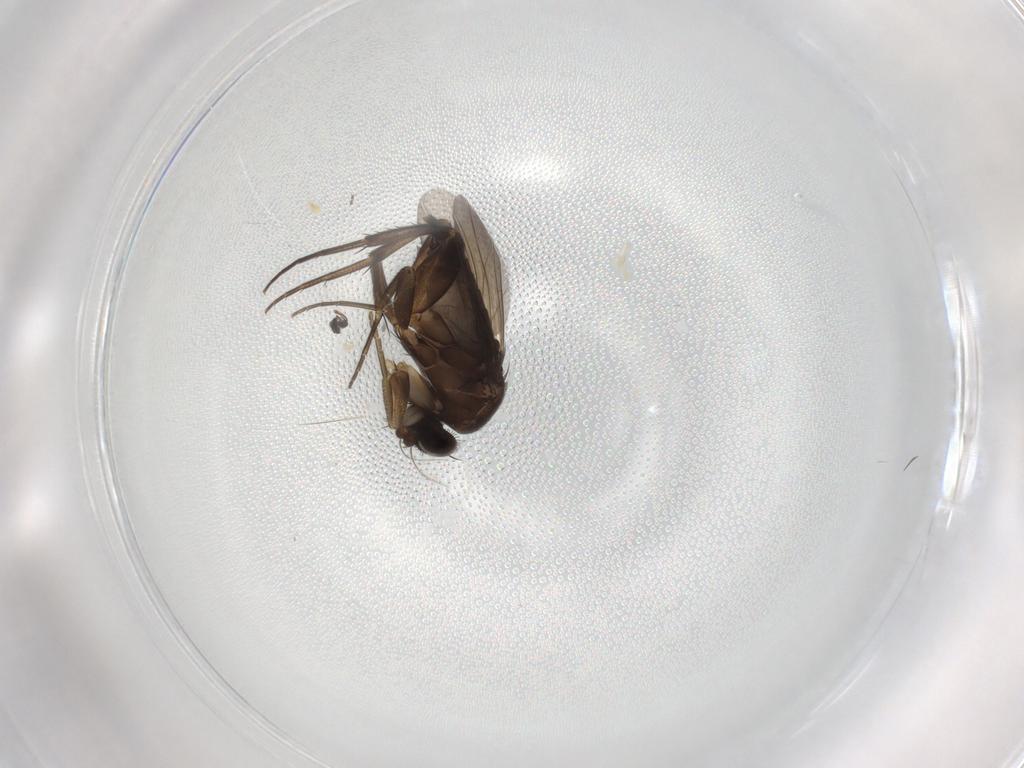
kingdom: Animalia
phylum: Arthropoda
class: Insecta
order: Diptera
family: Phoridae
